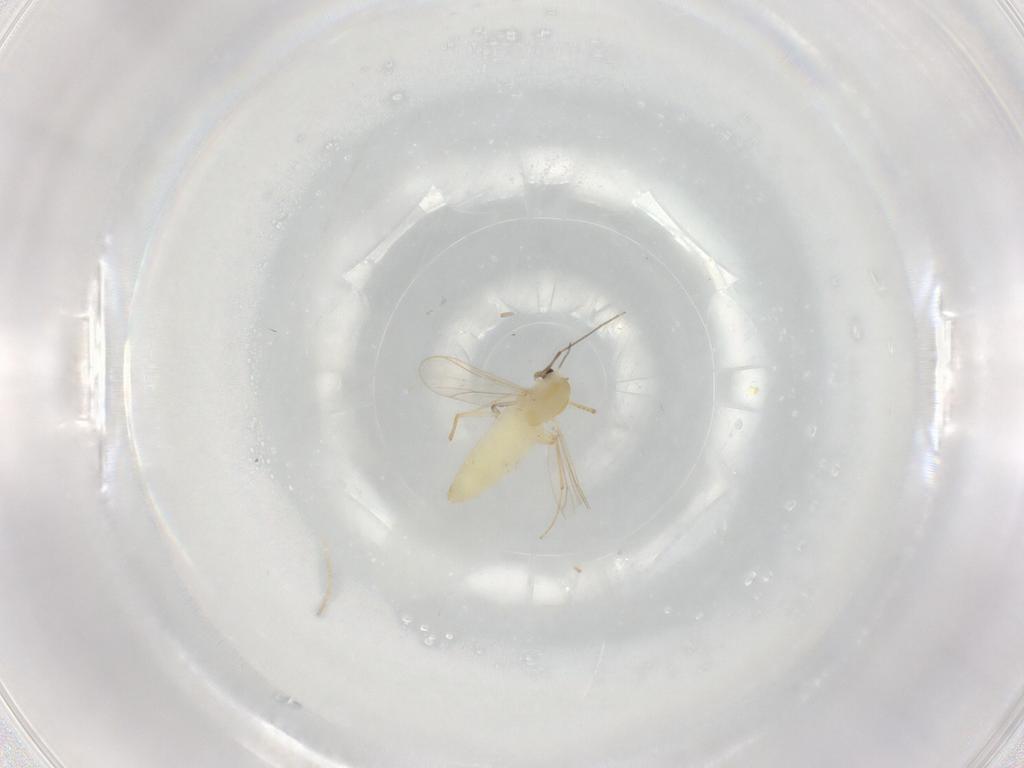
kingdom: Animalia
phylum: Arthropoda
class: Insecta
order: Diptera
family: Chironomidae
